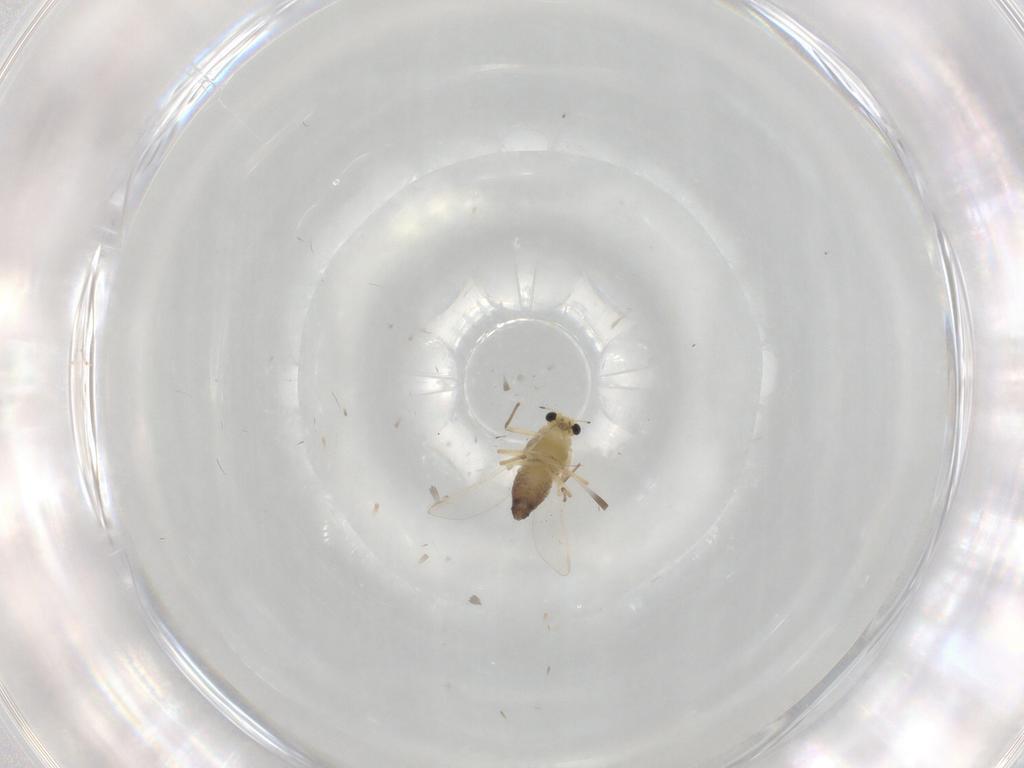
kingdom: Animalia
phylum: Arthropoda
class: Insecta
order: Diptera
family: Chironomidae
